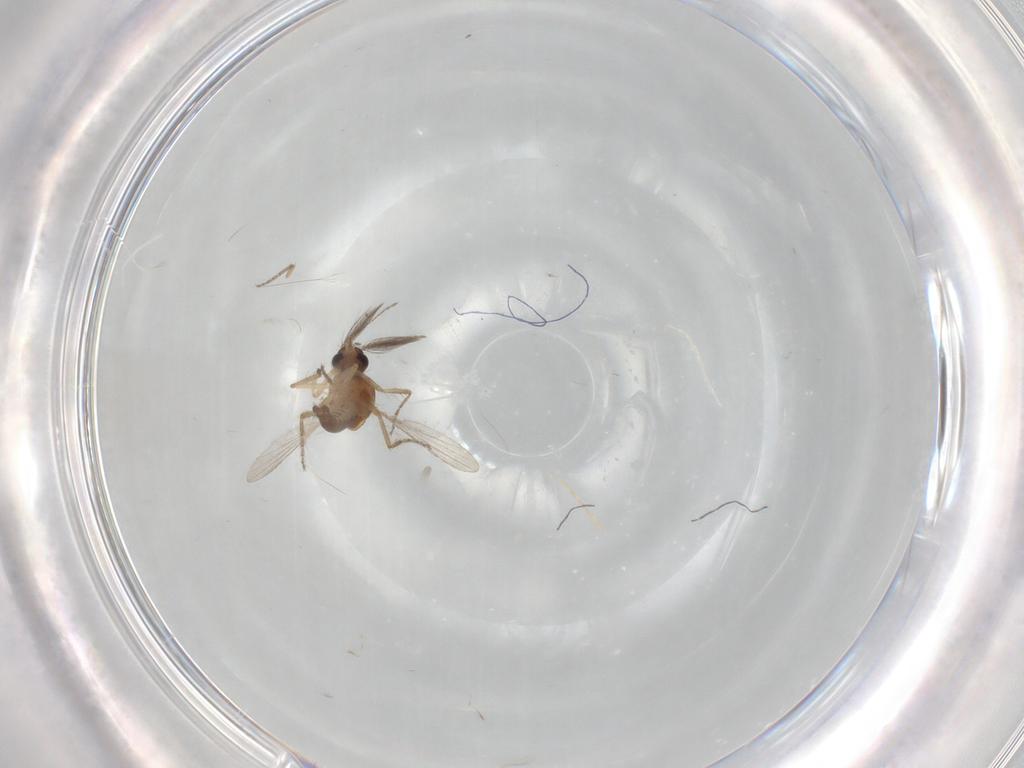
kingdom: Animalia
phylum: Arthropoda
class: Insecta
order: Diptera
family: Ceratopogonidae
